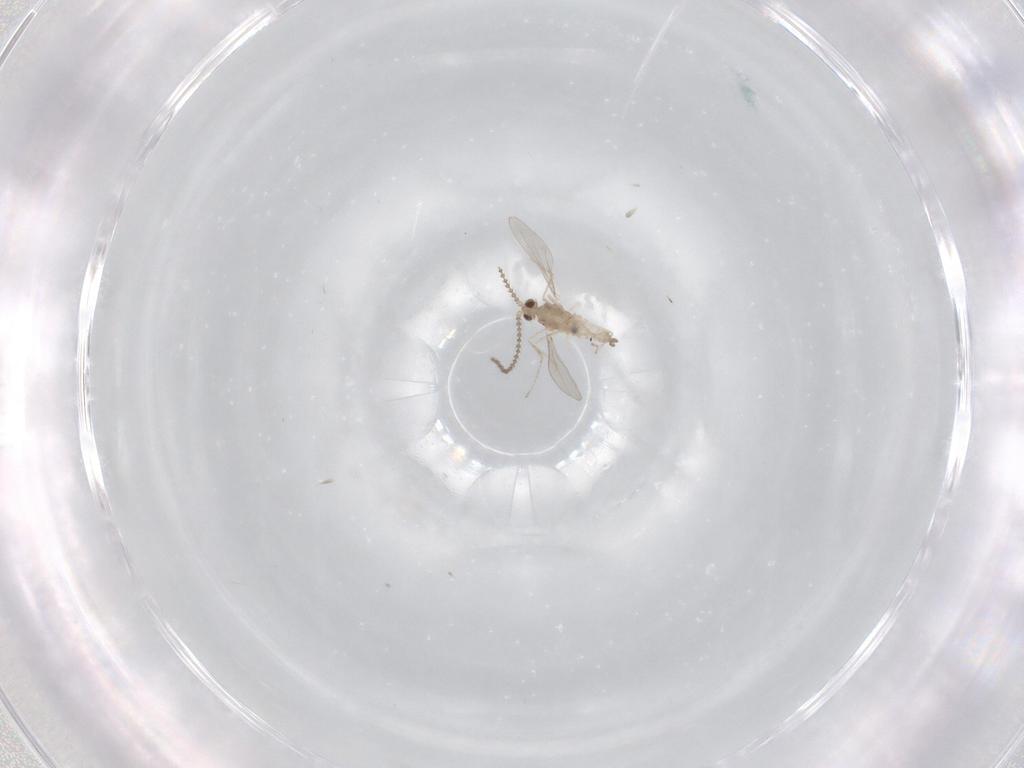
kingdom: Animalia
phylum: Arthropoda
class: Insecta
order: Diptera
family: Cecidomyiidae
